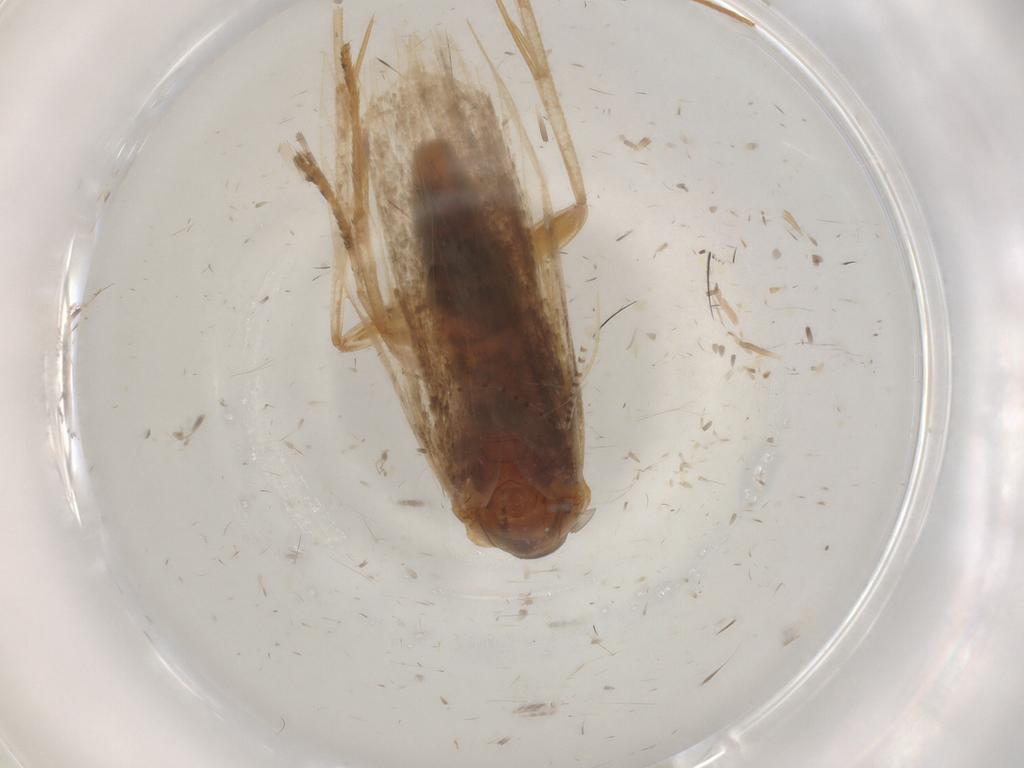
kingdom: Animalia
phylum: Arthropoda
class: Insecta
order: Lepidoptera
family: Gelechiidae
